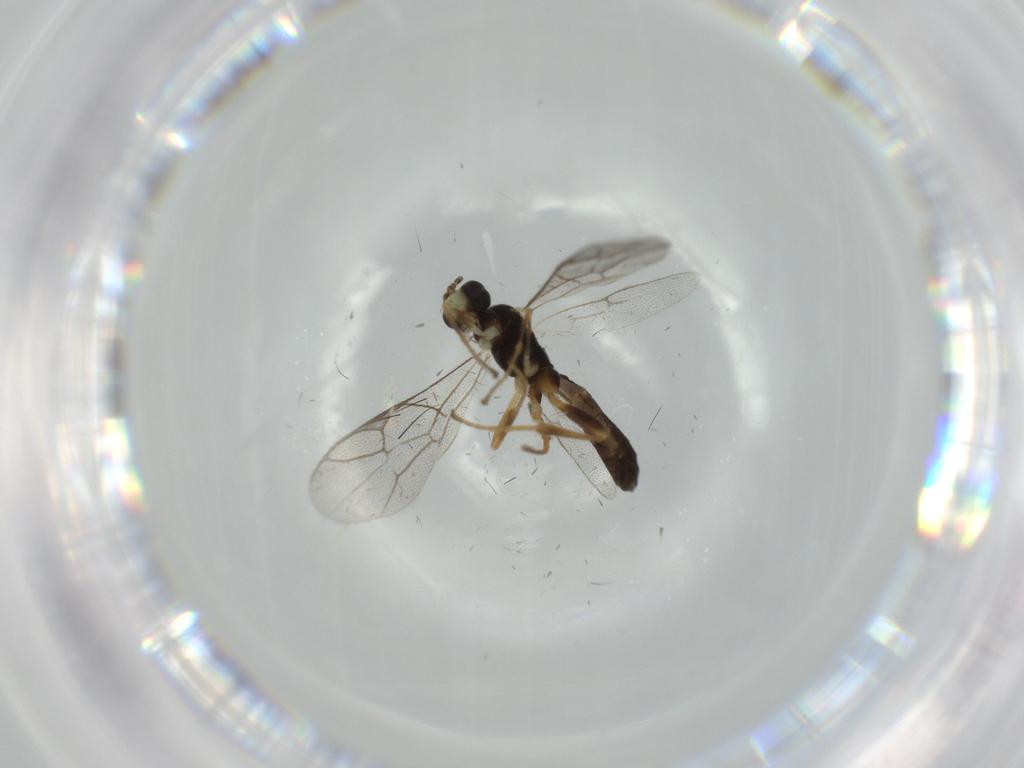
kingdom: Animalia
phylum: Arthropoda
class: Insecta
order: Hymenoptera
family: Ichneumonidae
